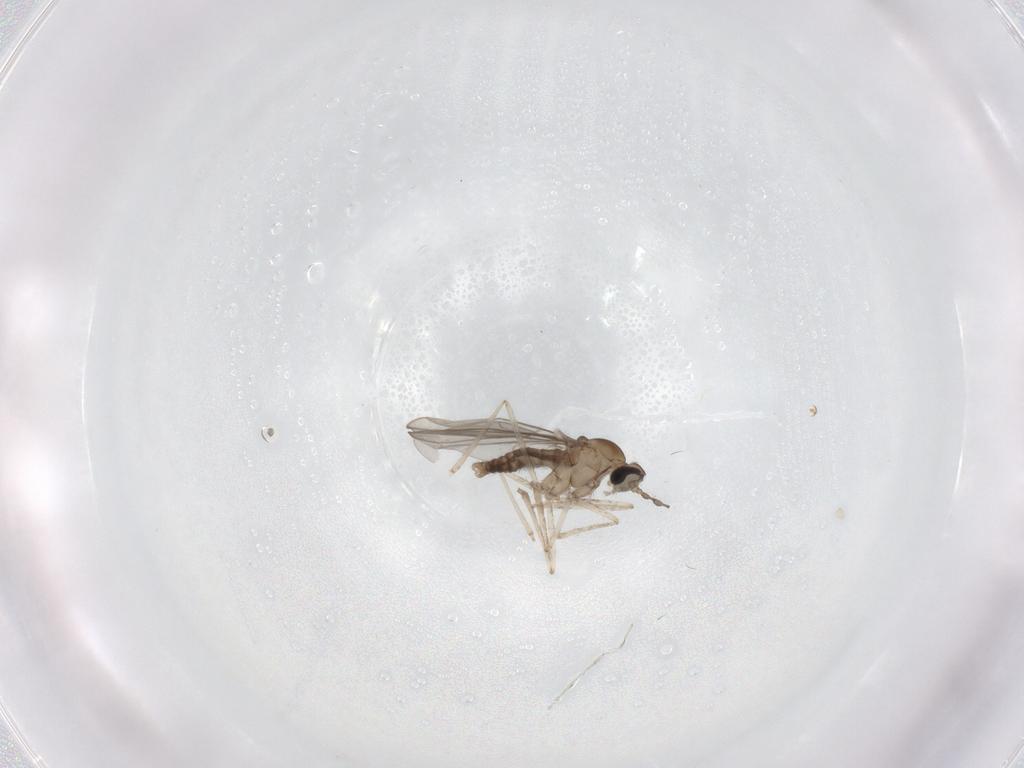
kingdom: Animalia
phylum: Arthropoda
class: Insecta
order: Diptera
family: Cecidomyiidae
